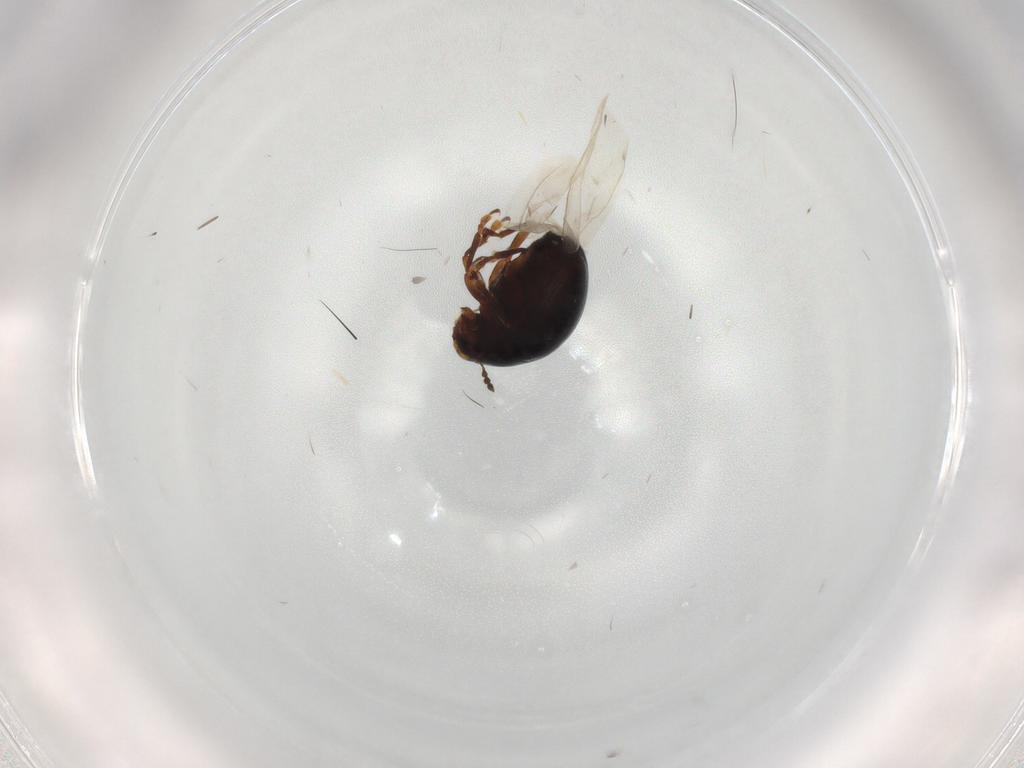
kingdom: Animalia
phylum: Arthropoda
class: Insecta
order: Coleoptera
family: Anthribidae
